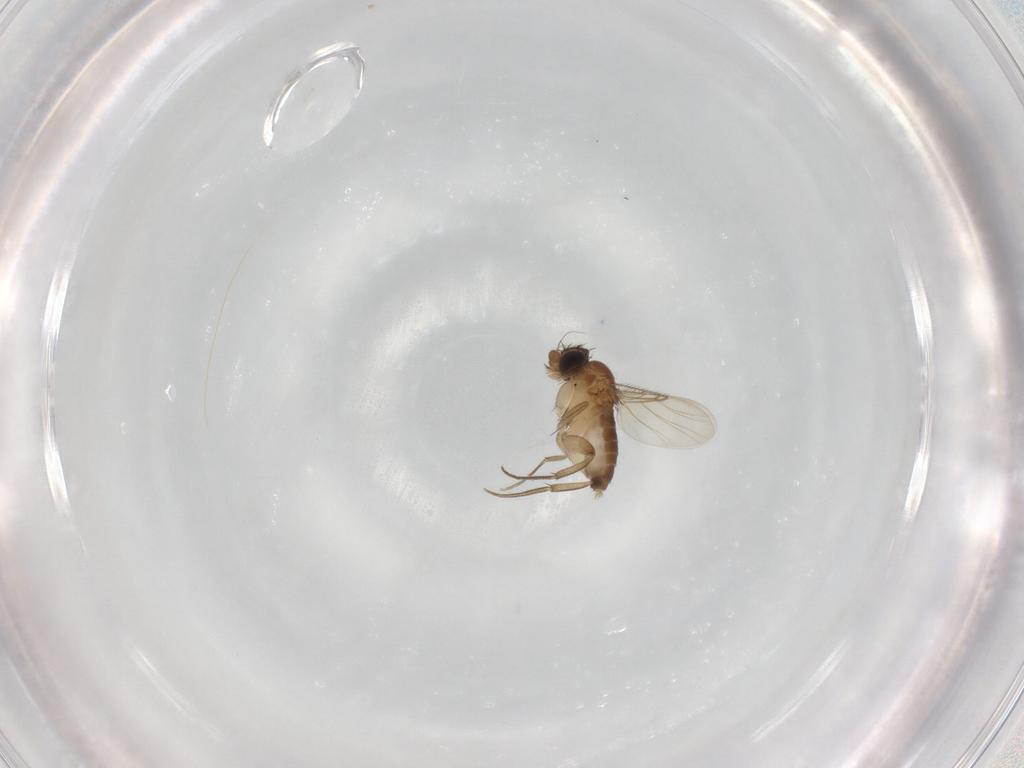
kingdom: Animalia
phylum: Arthropoda
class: Insecta
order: Diptera
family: Phoridae
